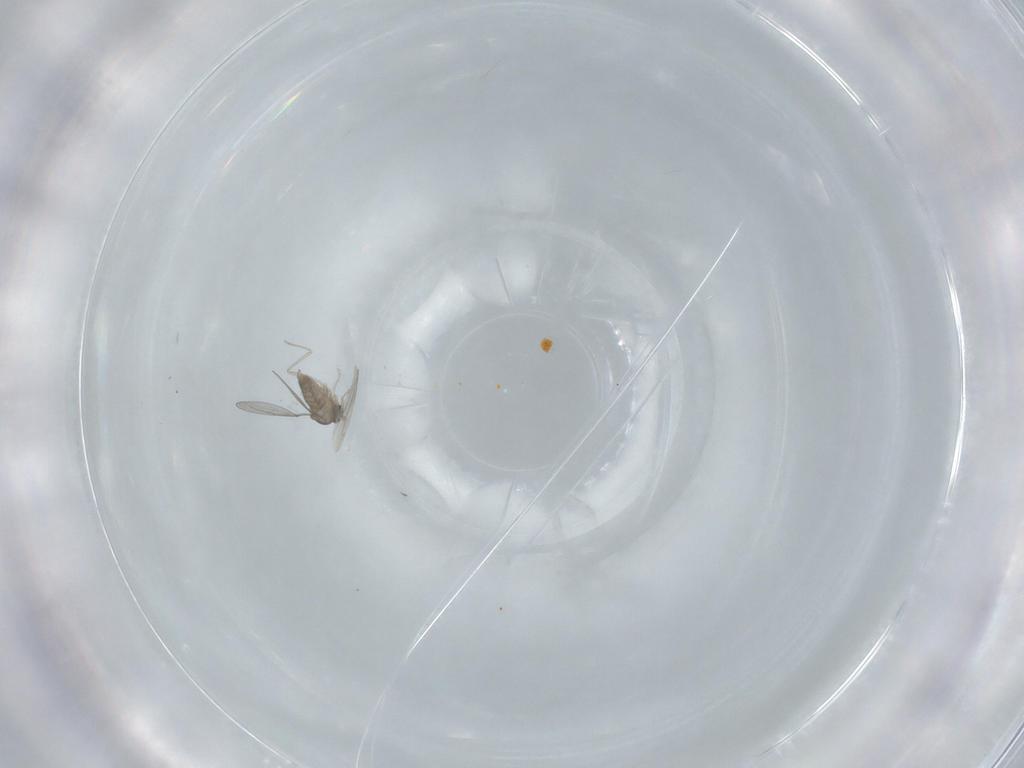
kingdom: Animalia
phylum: Arthropoda
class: Insecta
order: Diptera
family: Cecidomyiidae
